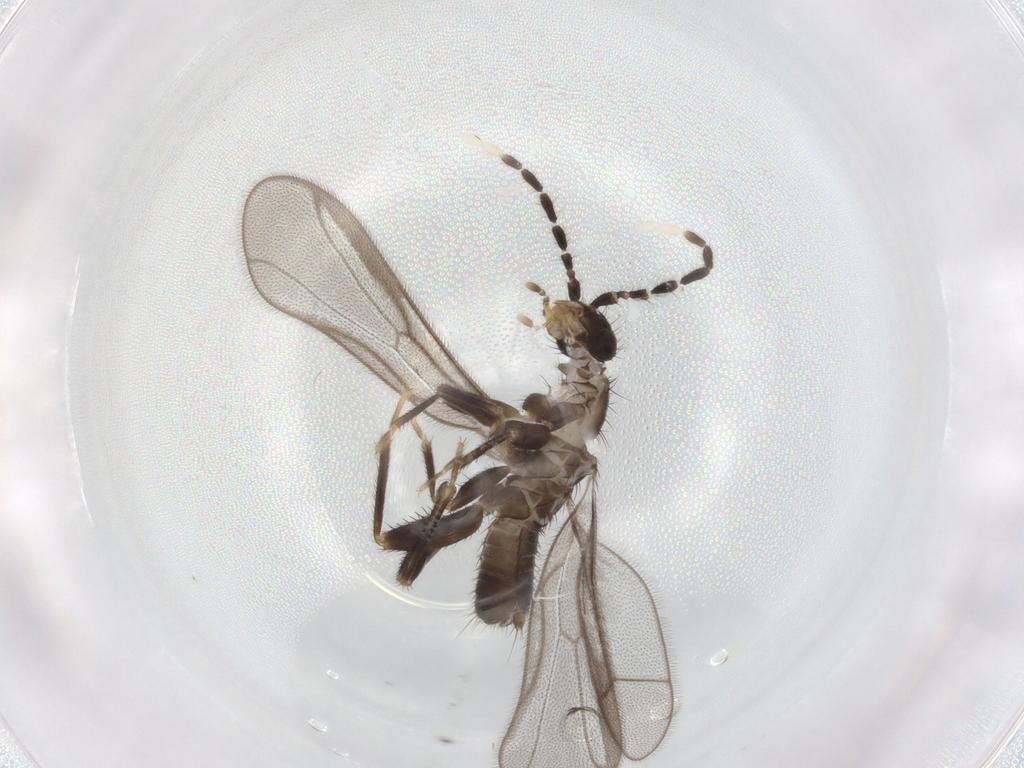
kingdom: Animalia
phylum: Arthropoda
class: Insecta
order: Zoraptera
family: Zorotypidae
